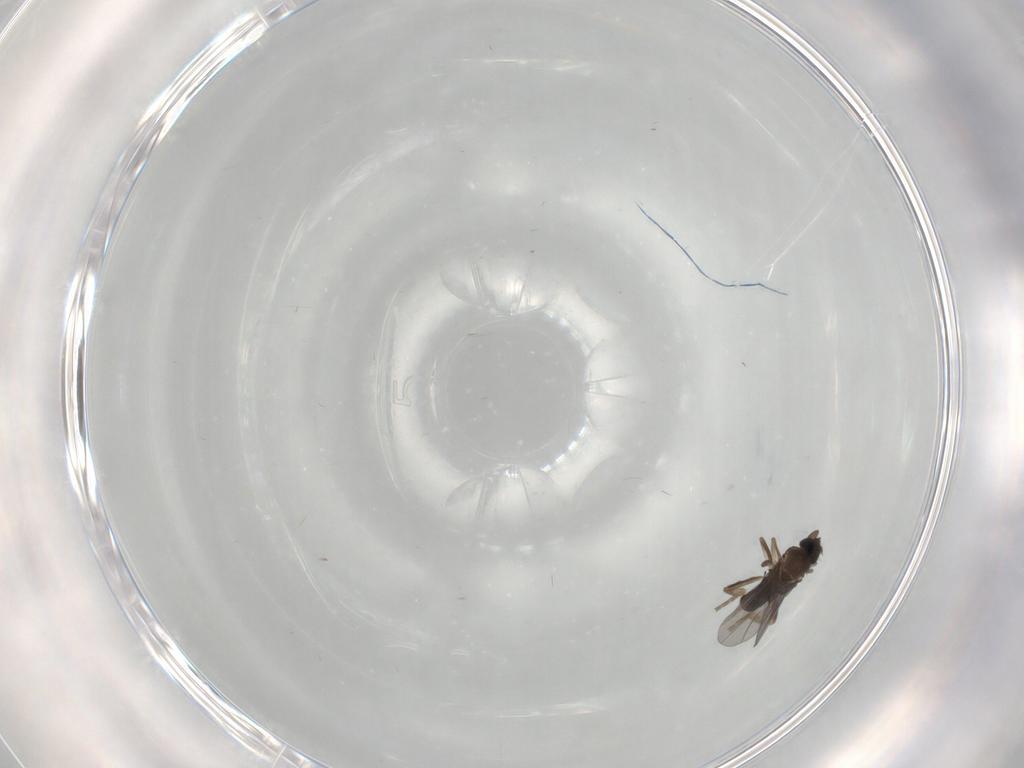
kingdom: Animalia
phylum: Arthropoda
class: Insecta
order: Diptera
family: Ceratopogonidae
